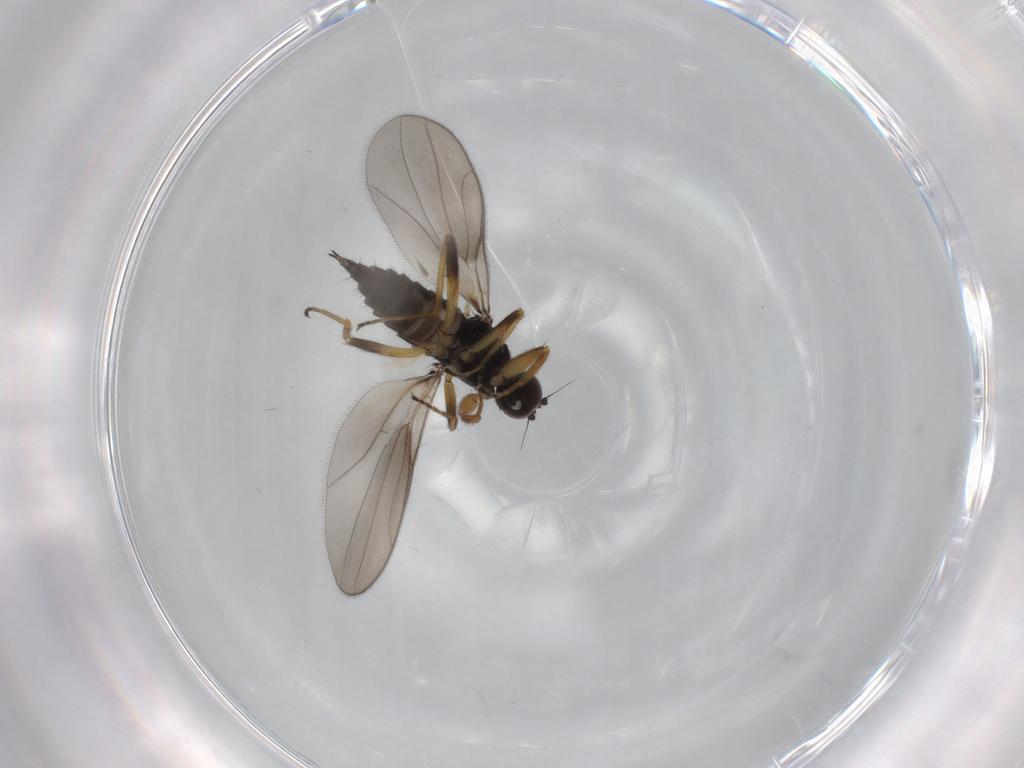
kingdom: Animalia
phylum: Arthropoda
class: Insecta
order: Diptera
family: Hybotidae
